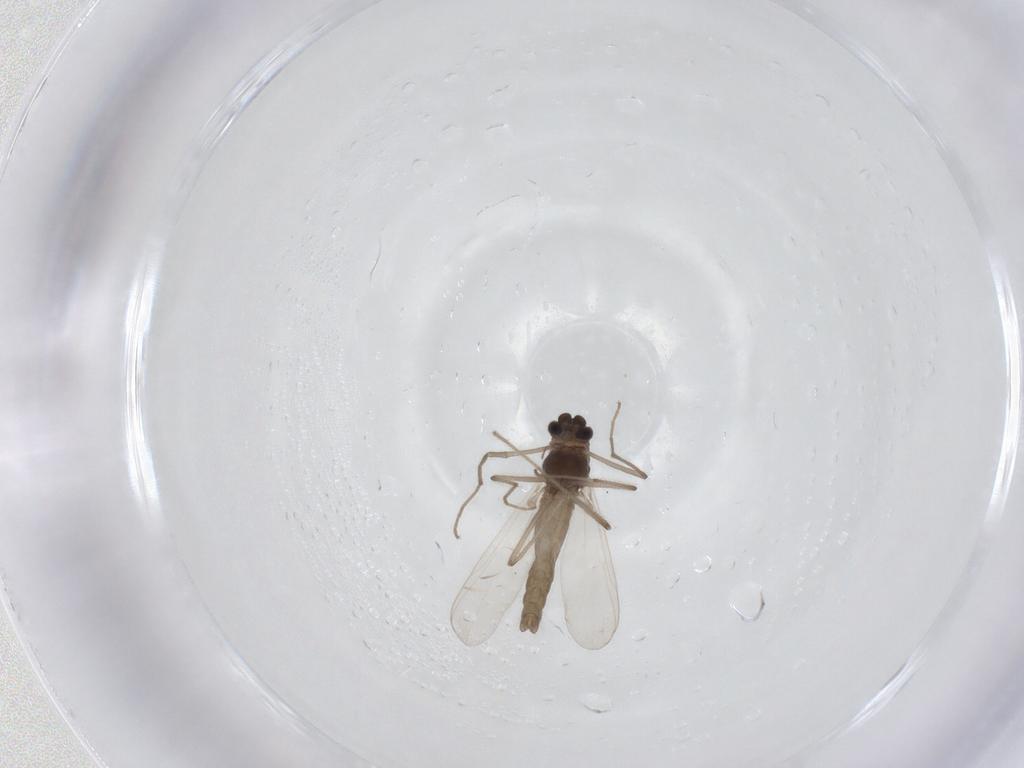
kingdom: Animalia
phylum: Arthropoda
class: Insecta
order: Diptera
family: Chironomidae
